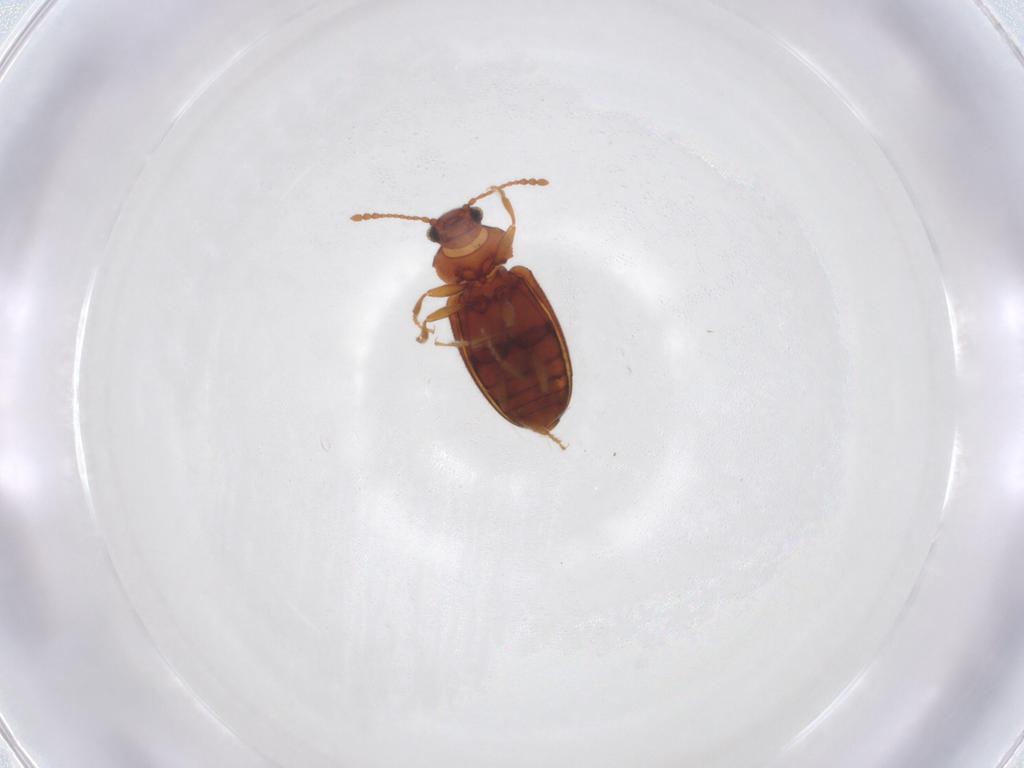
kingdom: Animalia
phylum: Arthropoda
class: Insecta
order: Coleoptera
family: Cryptophagidae
